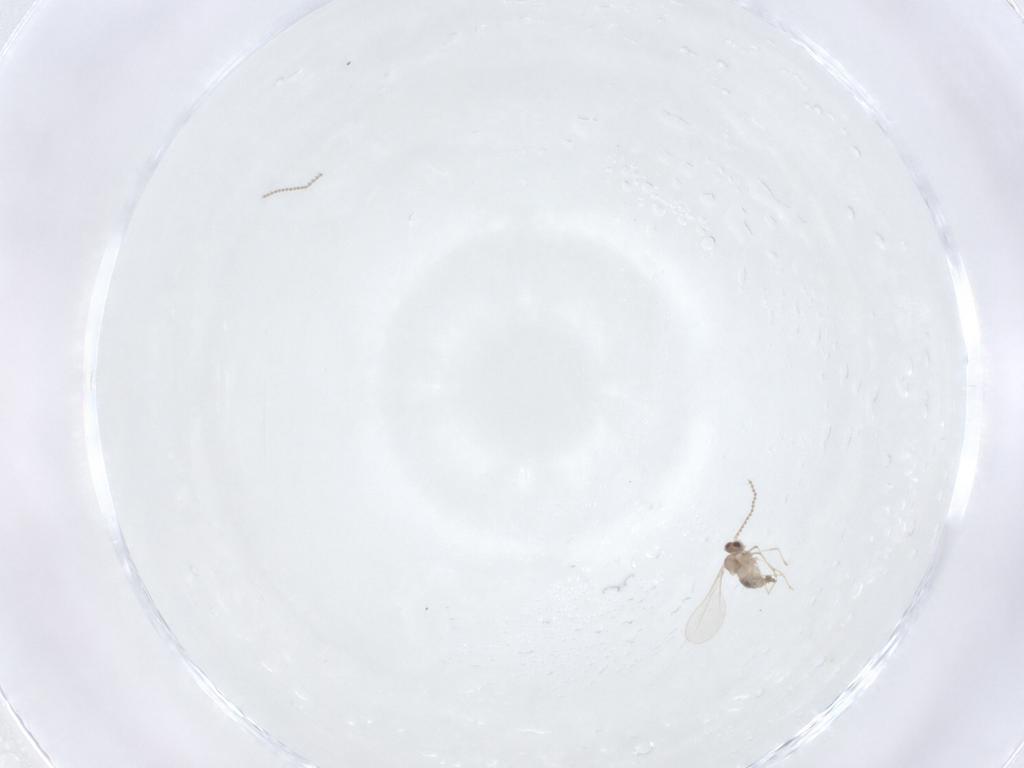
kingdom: Animalia
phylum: Arthropoda
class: Insecta
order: Diptera
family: Cecidomyiidae
